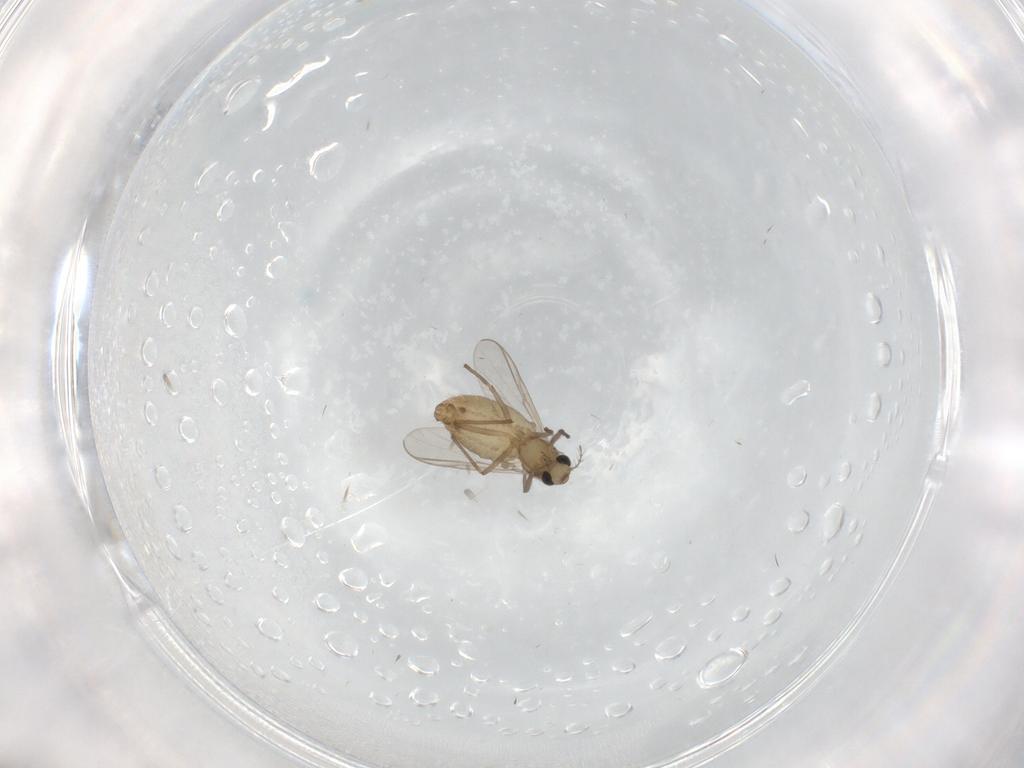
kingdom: Animalia
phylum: Arthropoda
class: Insecta
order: Diptera
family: Chironomidae
